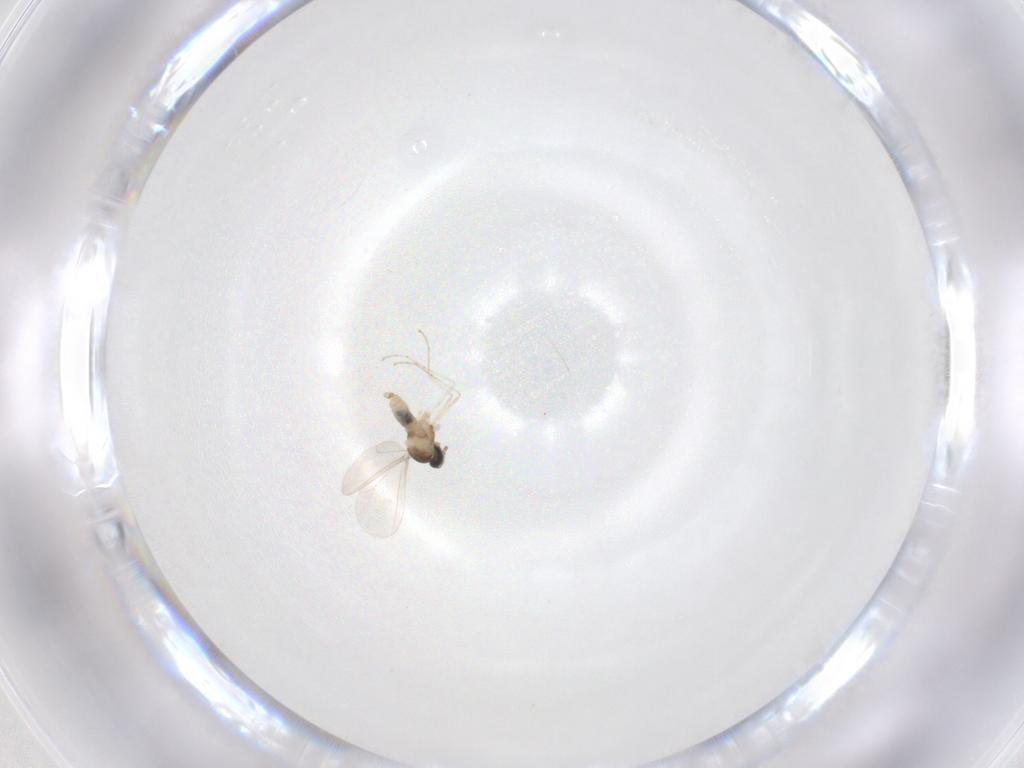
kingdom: Animalia
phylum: Arthropoda
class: Insecta
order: Diptera
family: Cecidomyiidae
